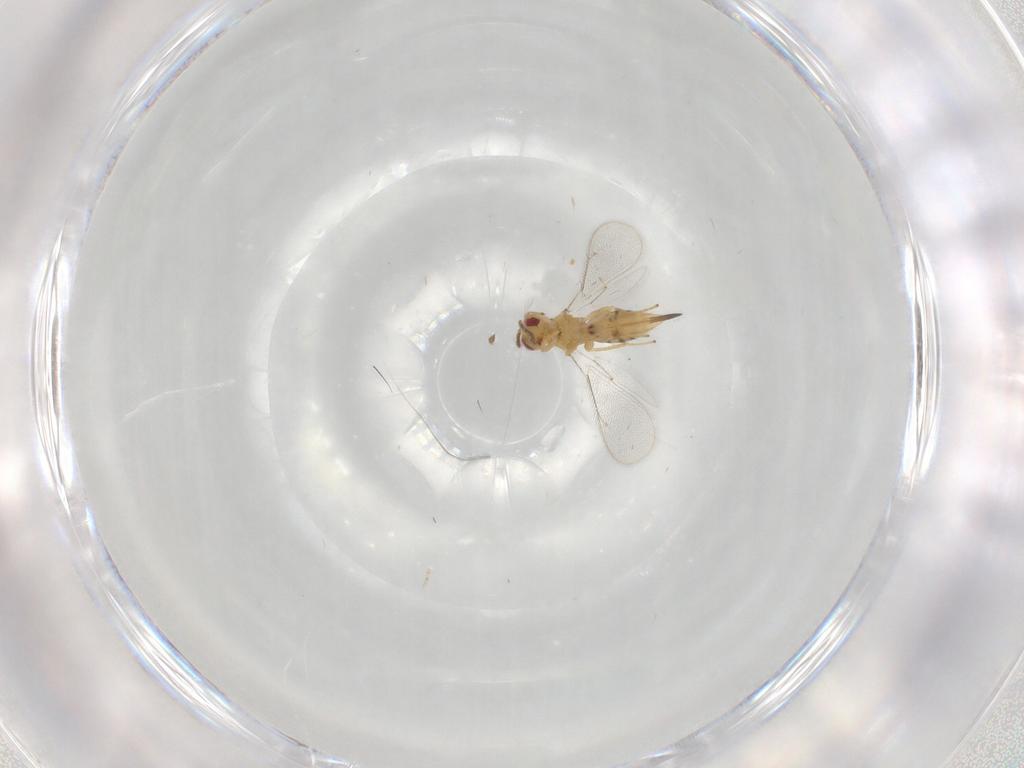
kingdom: Animalia
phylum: Arthropoda
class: Insecta
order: Hymenoptera
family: Eulophidae
